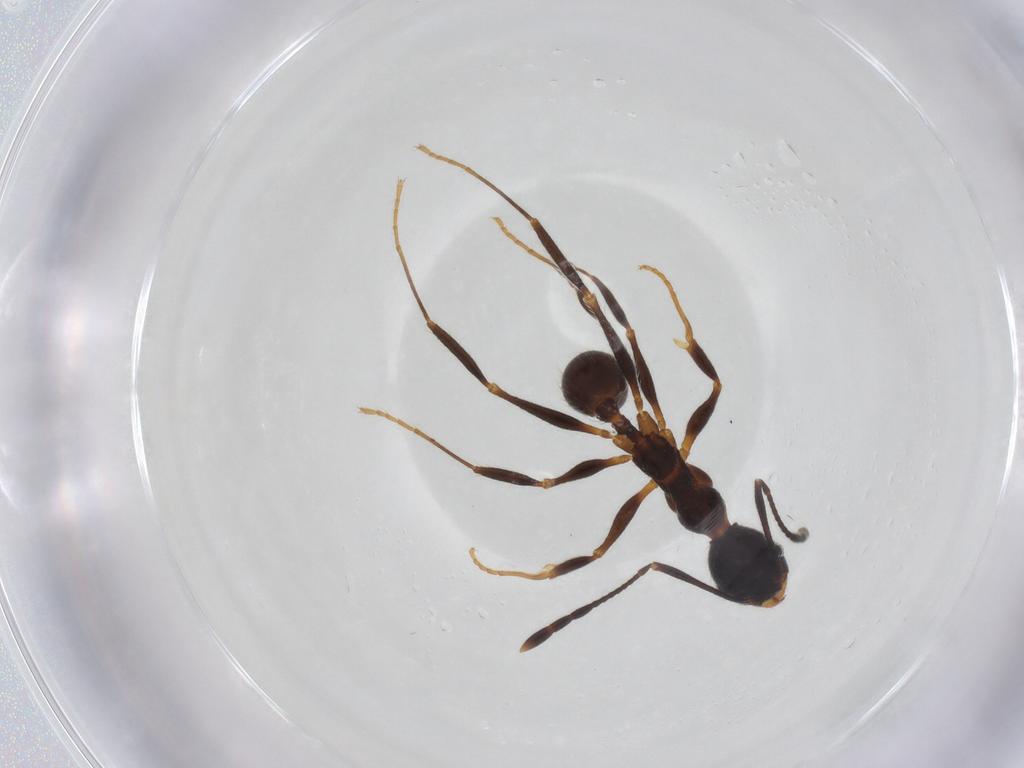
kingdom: Animalia
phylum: Arthropoda
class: Insecta
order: Hymenoptera
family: Formicidae
